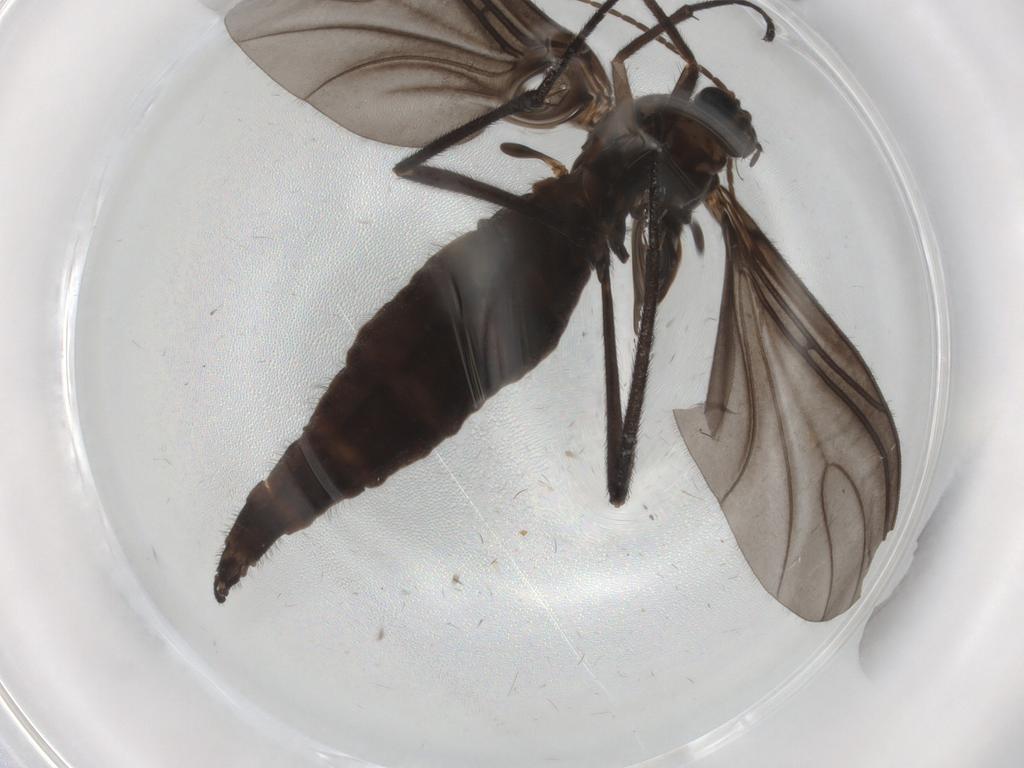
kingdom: Animalia
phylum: Arthropoda
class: Insecta
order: Diptera
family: Sciaridae
